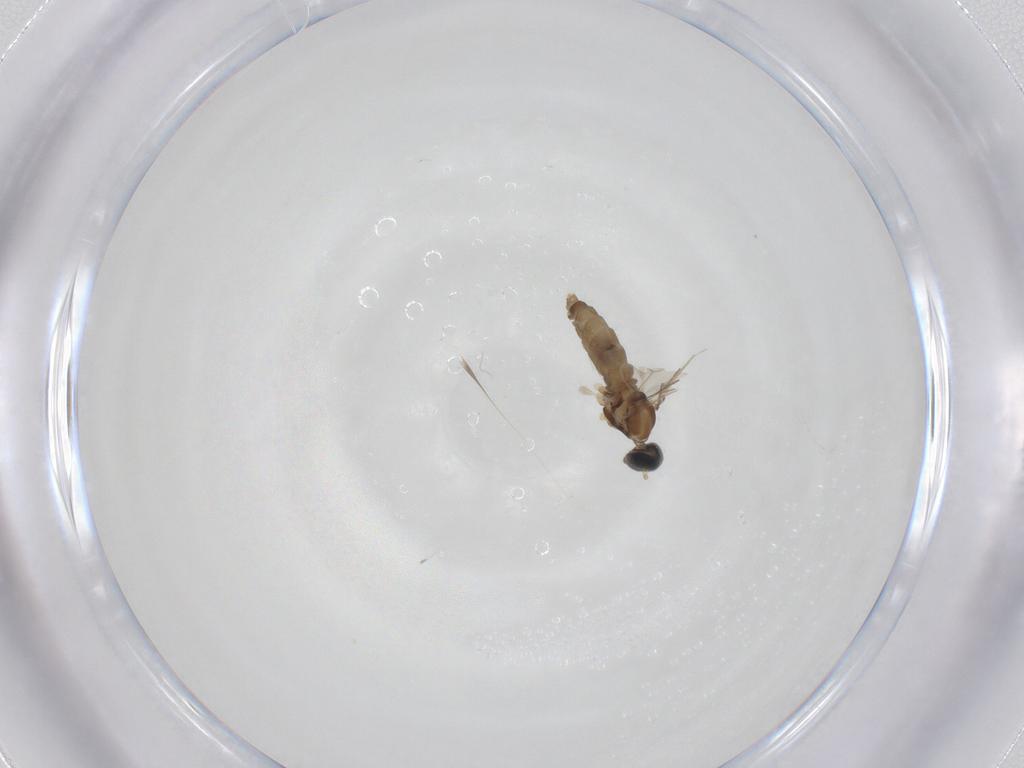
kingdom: Animalia
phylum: Arthropoda
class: Insecta
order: Diptera
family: Cecidomyiidae
